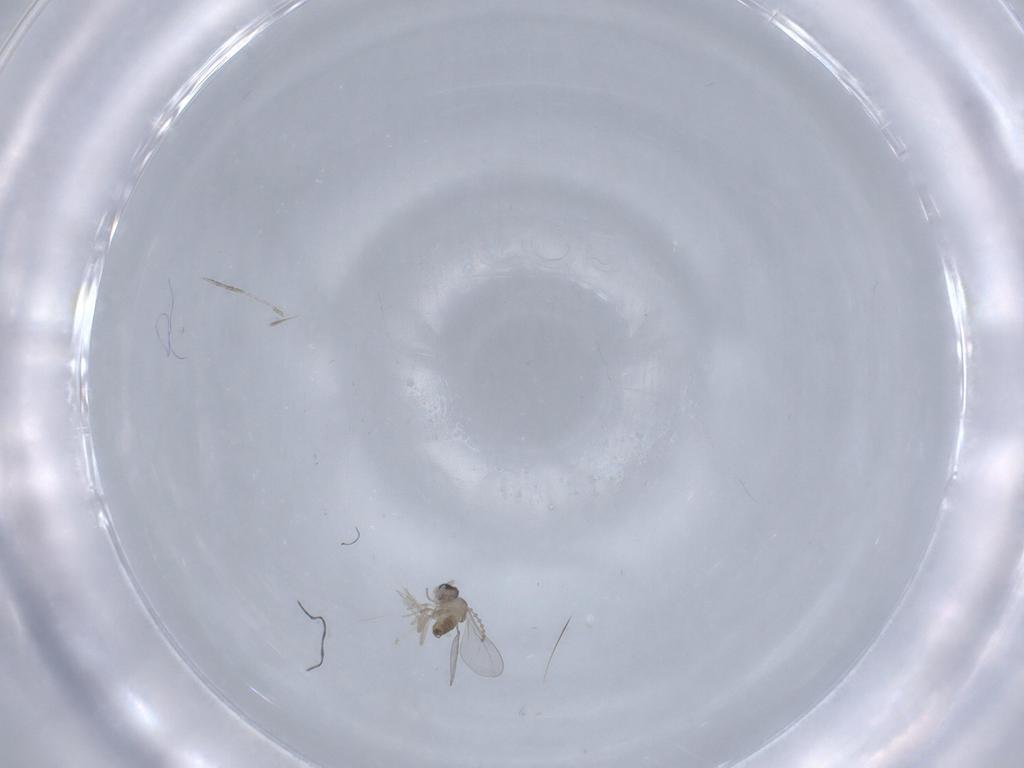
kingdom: Animalia
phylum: Arthropoda
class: Insecta
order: Diptera
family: Cecidomyiidae
